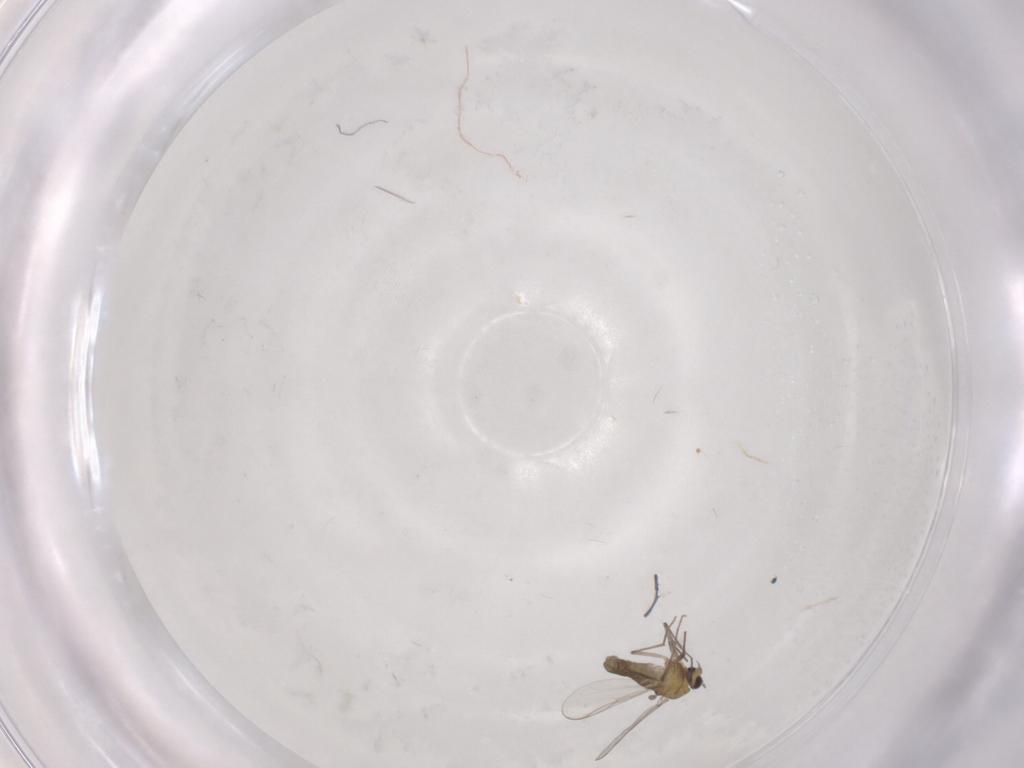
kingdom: Animalia
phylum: Arthropoda
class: Insecta
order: Diptera
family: Chironomidae
